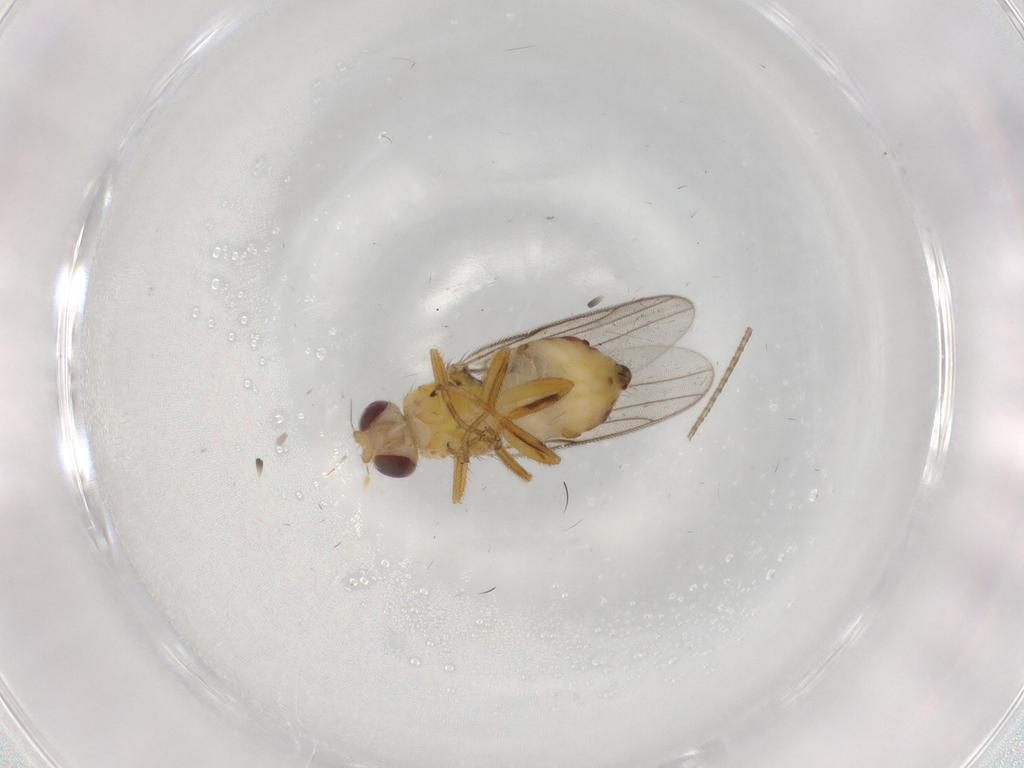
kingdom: Animalia
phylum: Arthropoda
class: Insecta
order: Diptera
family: Chloropidae
